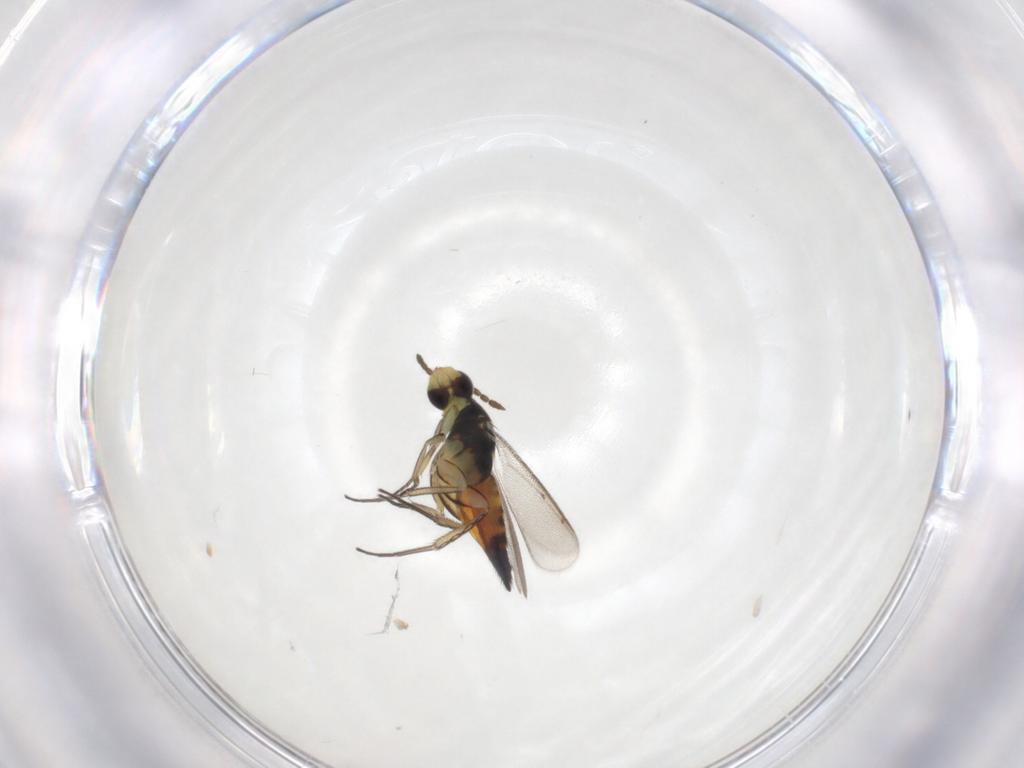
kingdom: Animalia
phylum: Arthropoda
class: Insecta
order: Hymenoptera
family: Eulophidae
